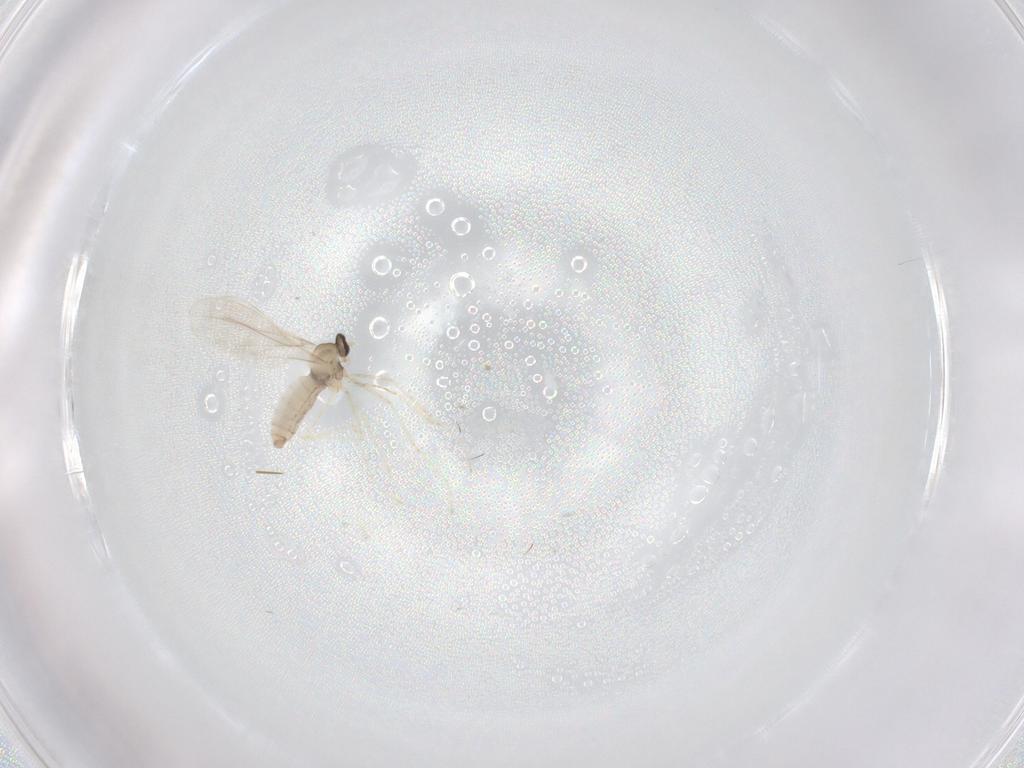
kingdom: Animalia
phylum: Arthropoda
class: Insecta
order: Diptera
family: Cecidomyiidae
